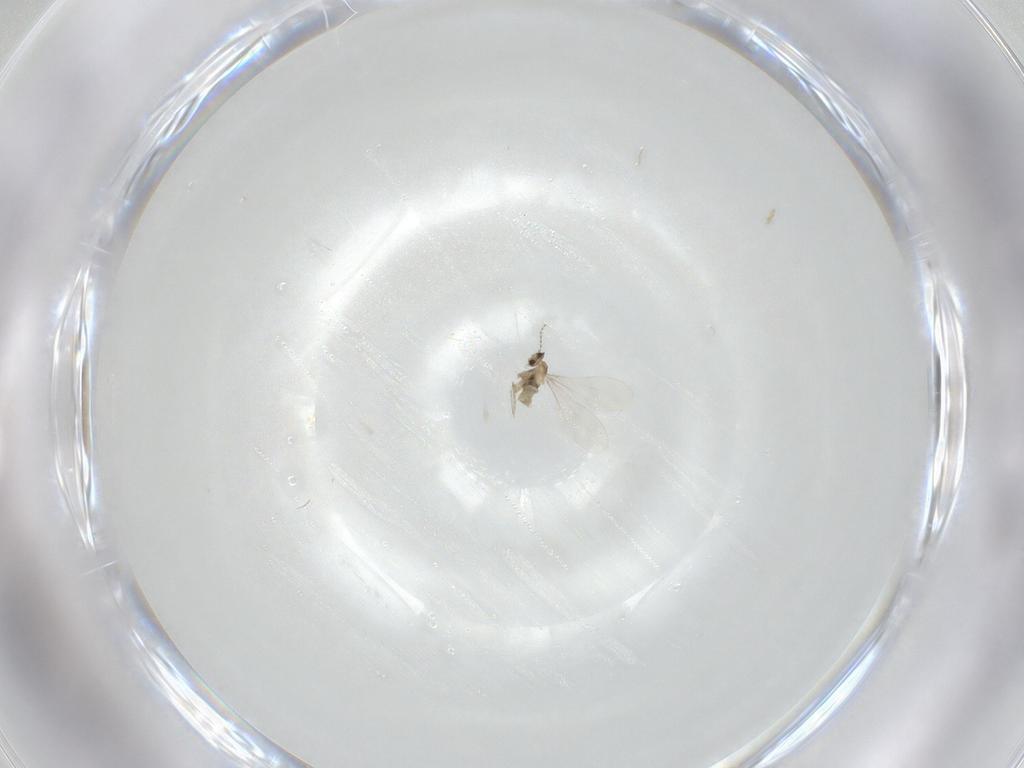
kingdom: Animalia
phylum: Arthropoda
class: Insecta
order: Diptera
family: Cecidomyiidae
